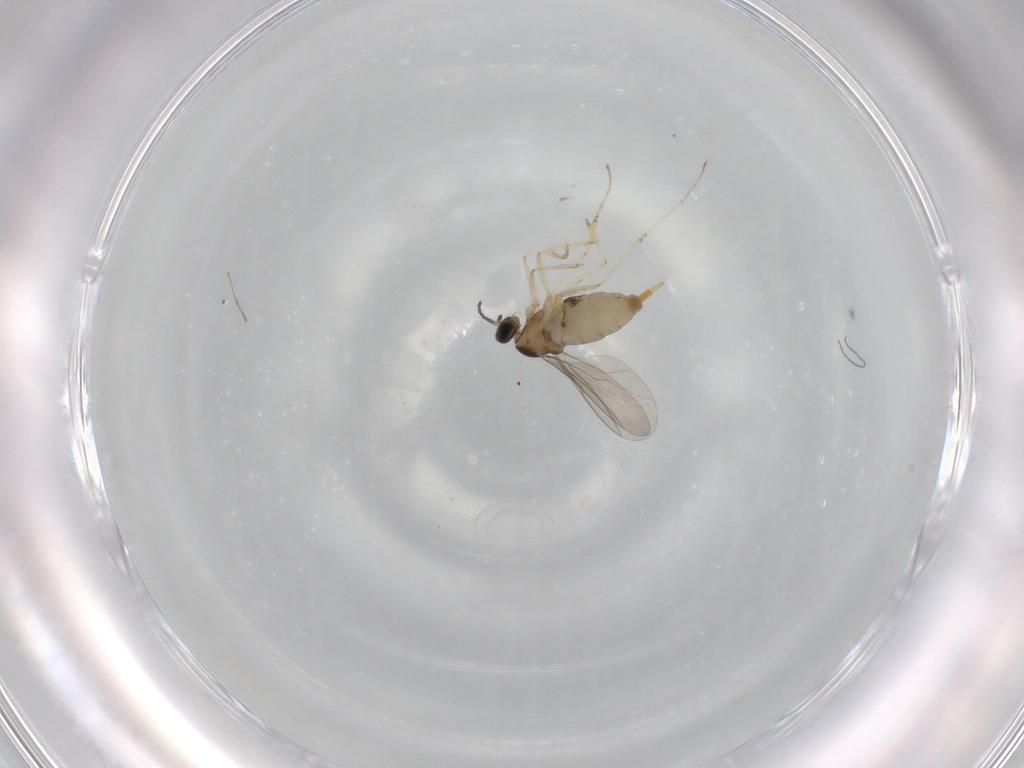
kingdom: Animalia
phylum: Arthropoda
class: Insecta
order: Diptera
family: Cecidomyiidae
